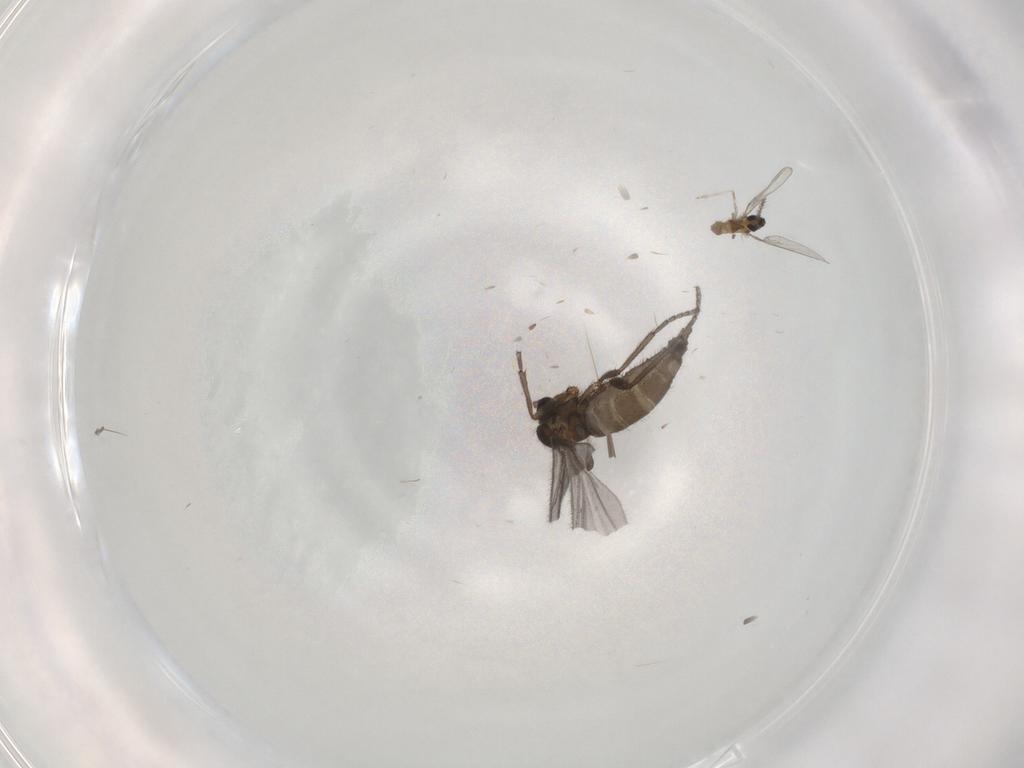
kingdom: Animalia
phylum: Arthropoda
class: Insecta
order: Diptera
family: Sciaridae
